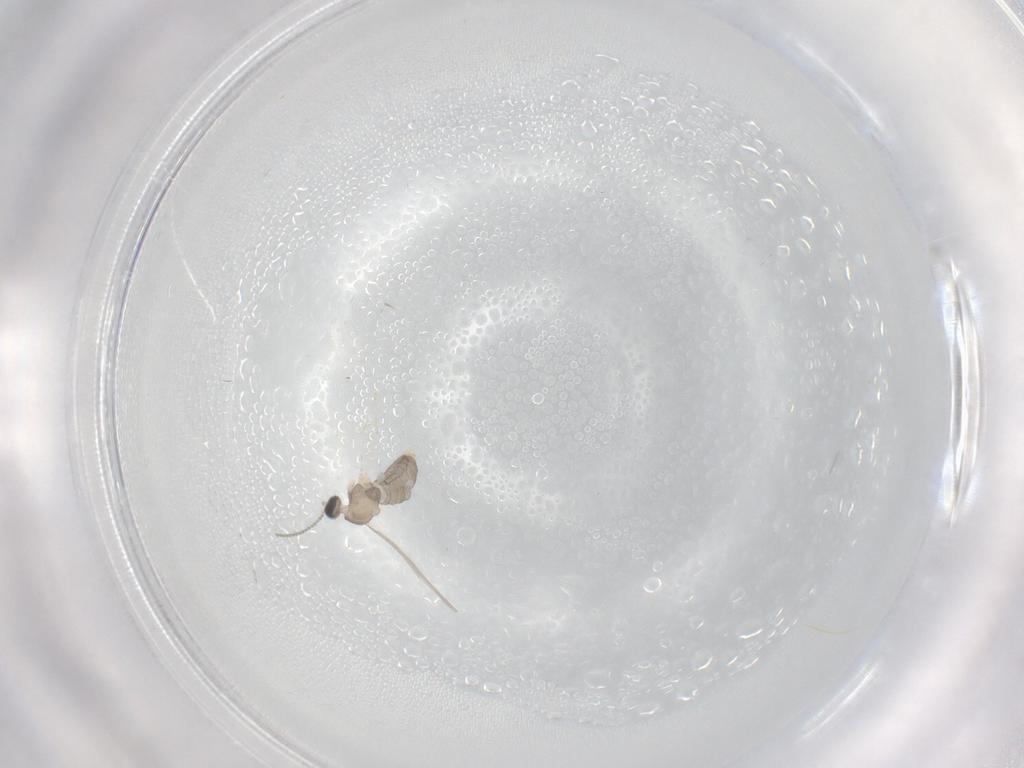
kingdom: Animalia
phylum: Arthropoda
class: Insecta
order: Diptera
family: Cecidomyiidae
